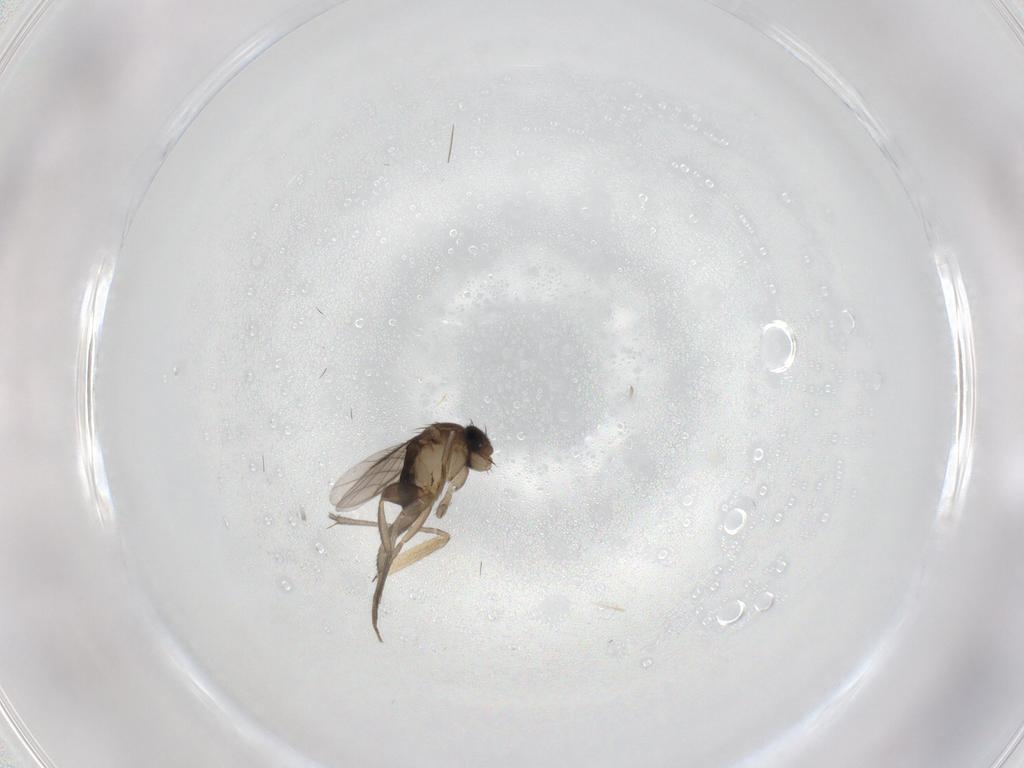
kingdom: Animalia
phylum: Arthropoda
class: Insecta
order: Diptera
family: Phoridae
